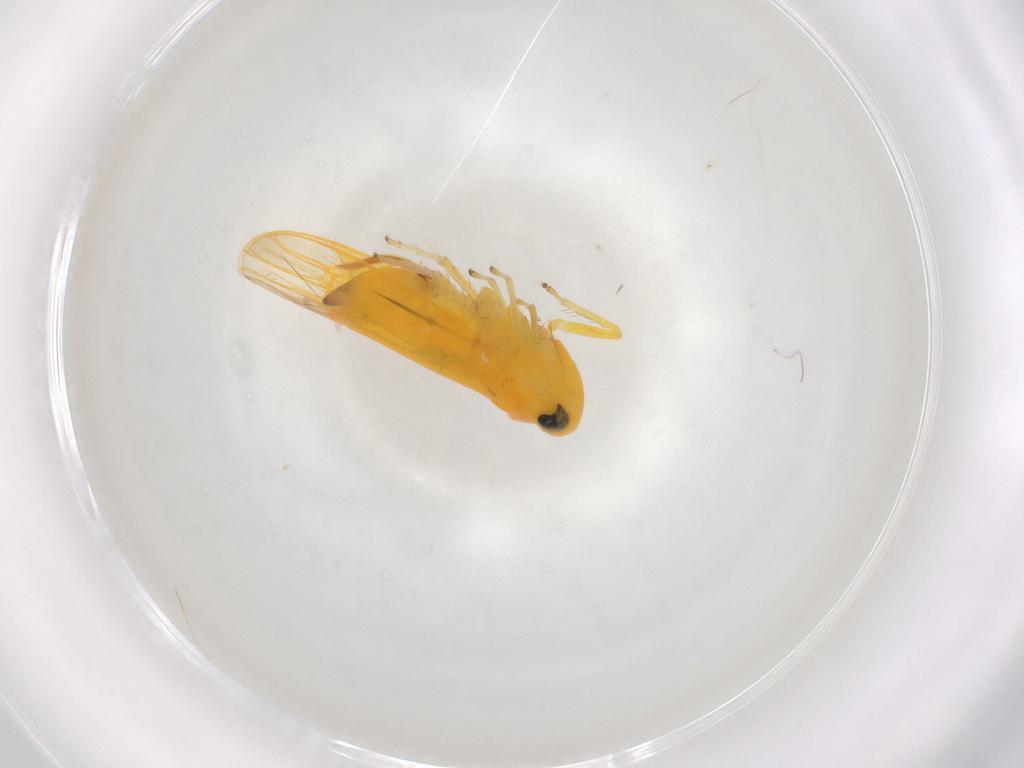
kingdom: Animalia
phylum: Arthropoda
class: Insecta
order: Hemiptera
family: Cicadellidae
